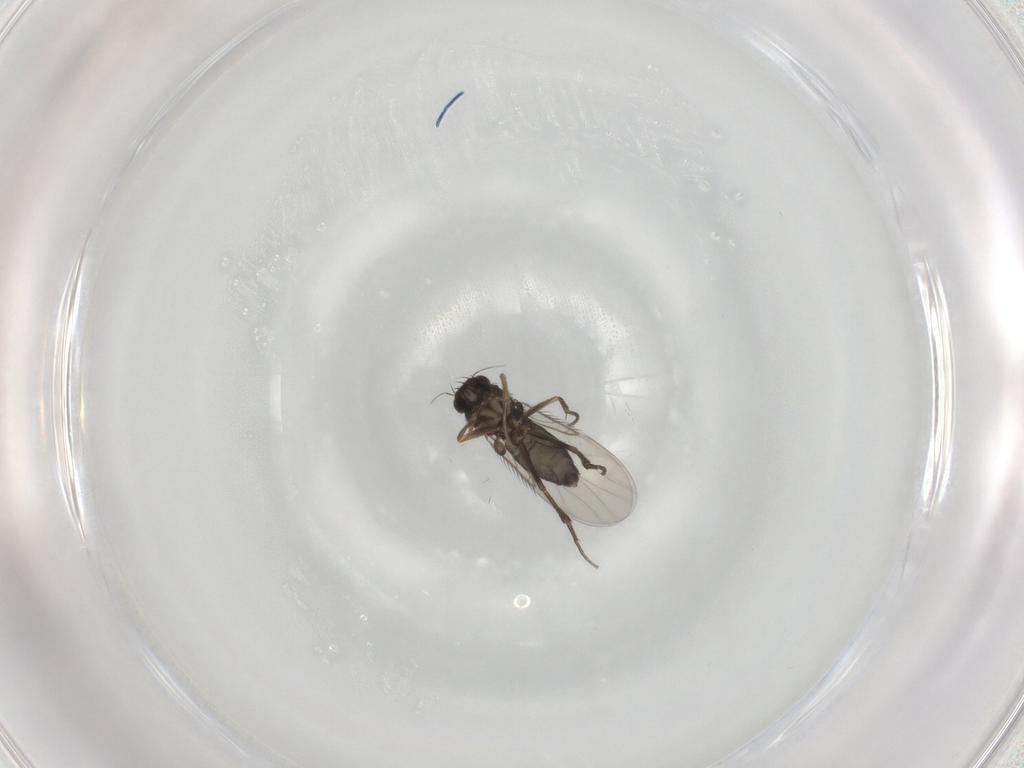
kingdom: Animalia
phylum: Arthropoda
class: Insecta
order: Diptera
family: Phoridae
